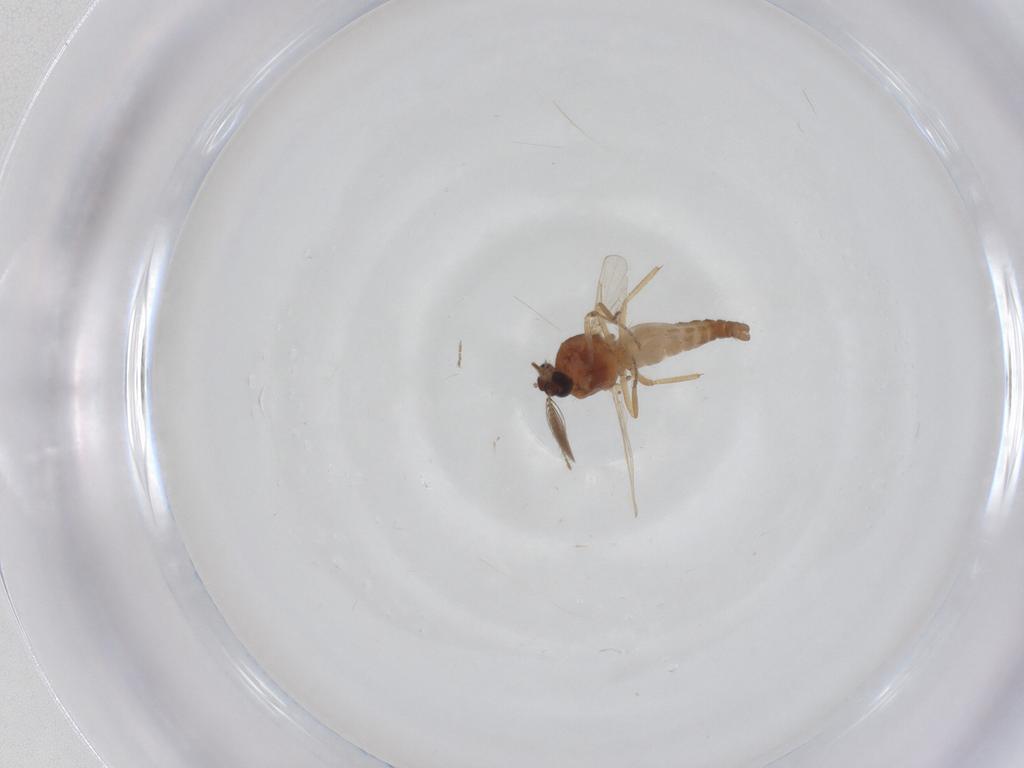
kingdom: Animalia
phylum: Arthropoda
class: Insecta
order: Diptera
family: Ceratopogonidae
